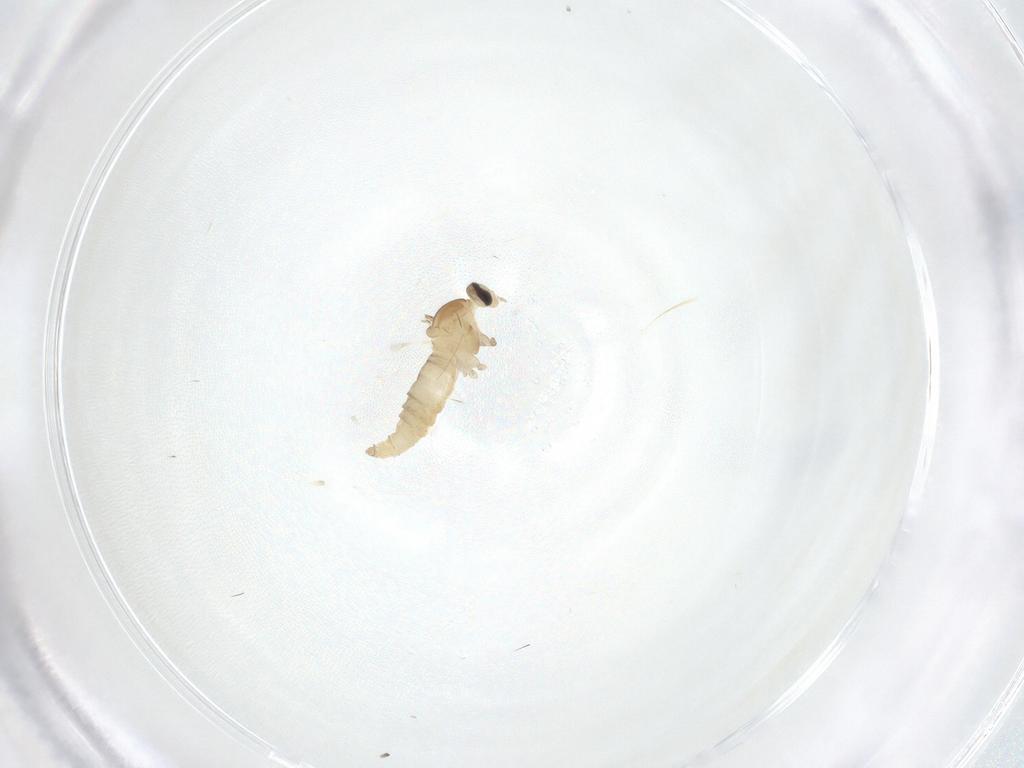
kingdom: Animalia
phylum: Arthropoda
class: Insecta
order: Diptera
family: Cecidomyiidae
